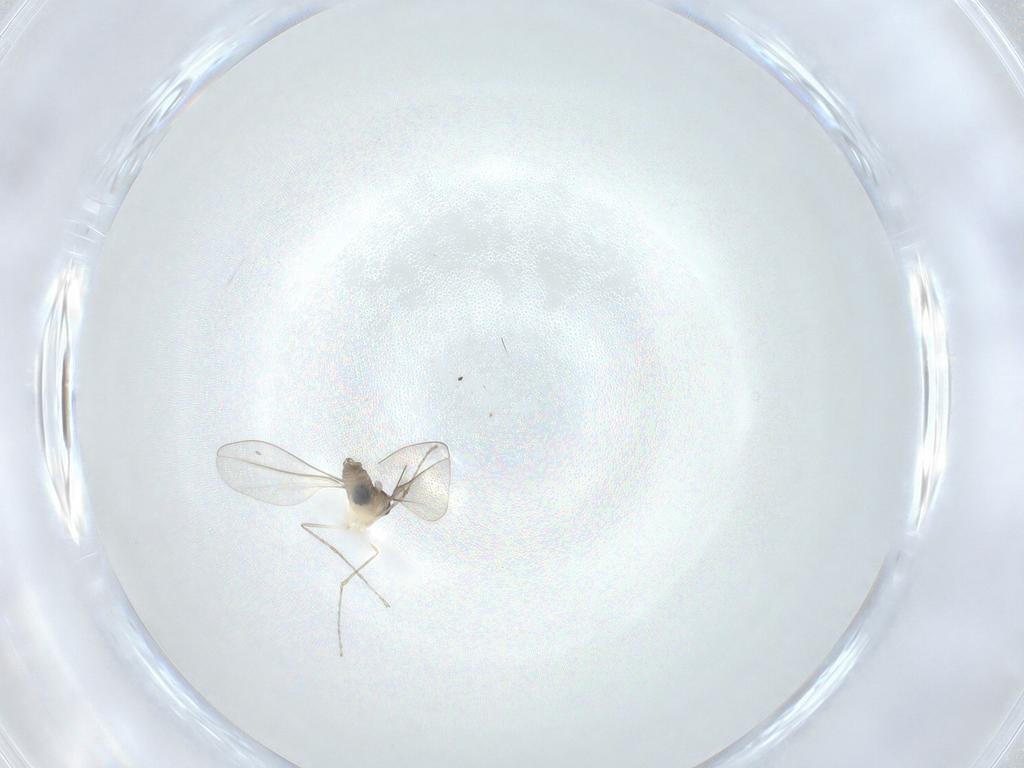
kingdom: Animalia
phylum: Arthropoda
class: Insecta
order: Diptera
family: Cecidomyiidae
